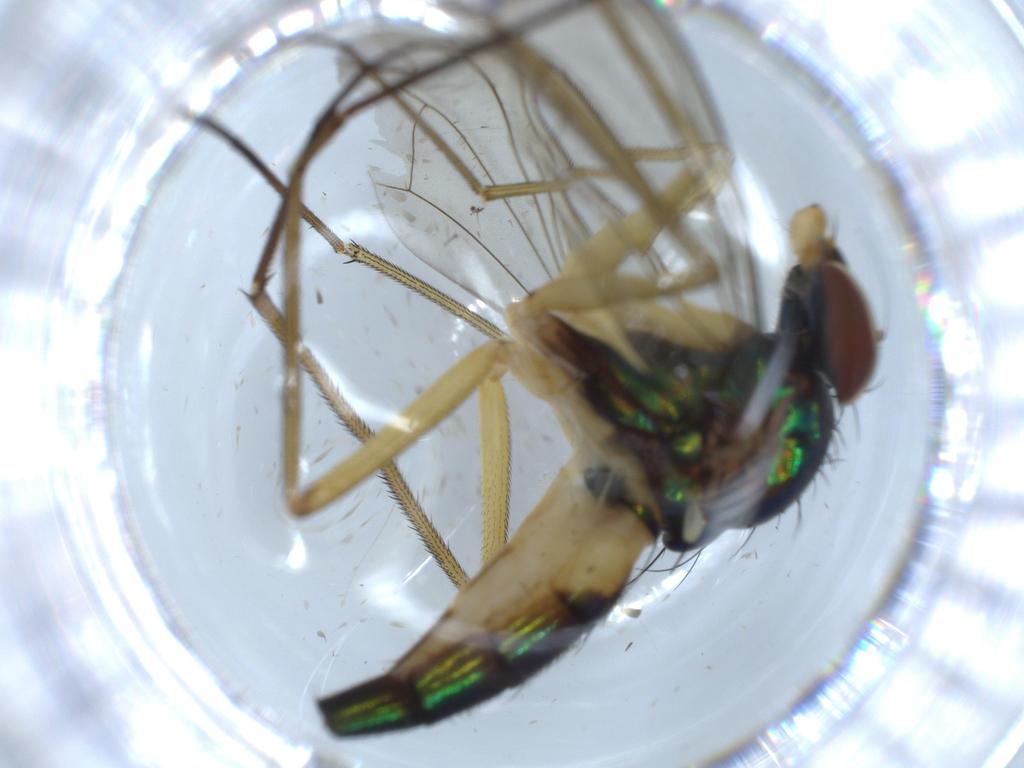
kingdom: Animalia
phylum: Arthropoda
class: Insecta
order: Diptera
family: Dolichopodidae
